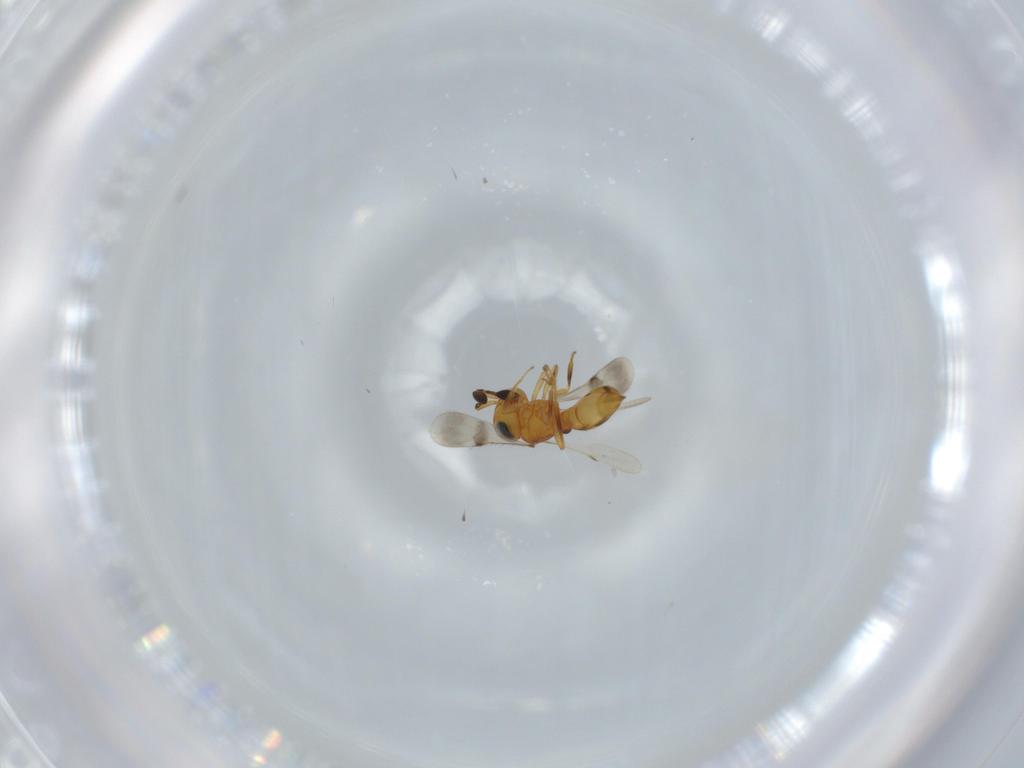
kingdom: Animalia
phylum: Arthropoda
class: Insecta
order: Hymenoptera
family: Scelionidae
